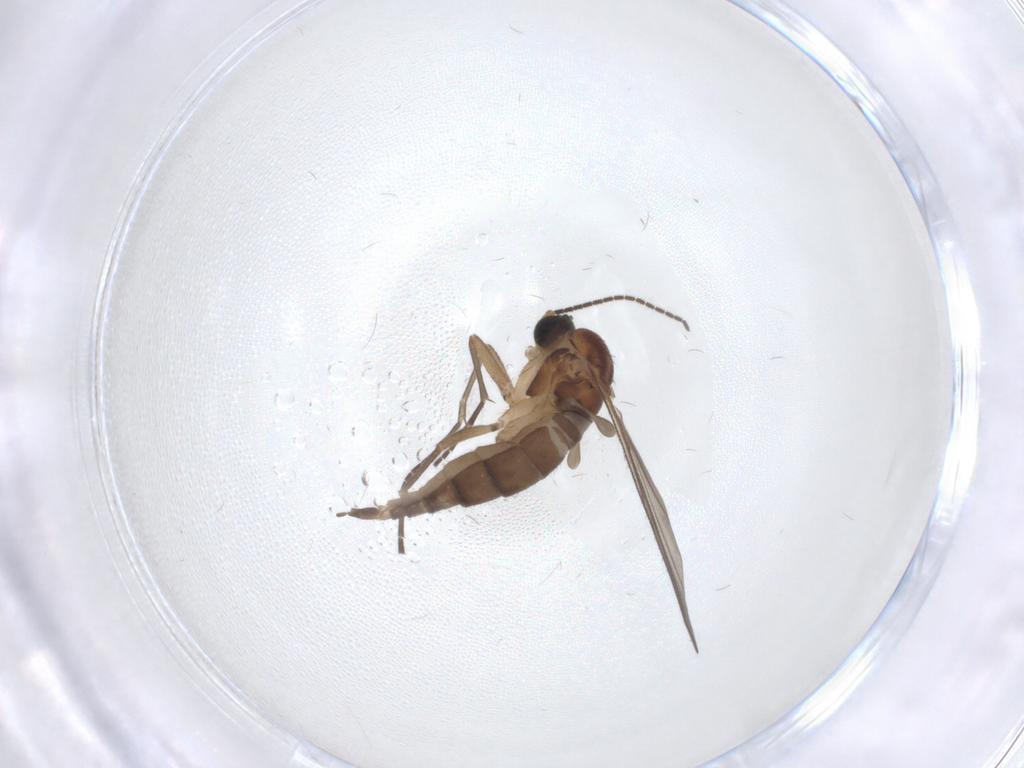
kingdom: Animalia
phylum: Arthropoda
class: Insecta
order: Diptera
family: Sciaridae
